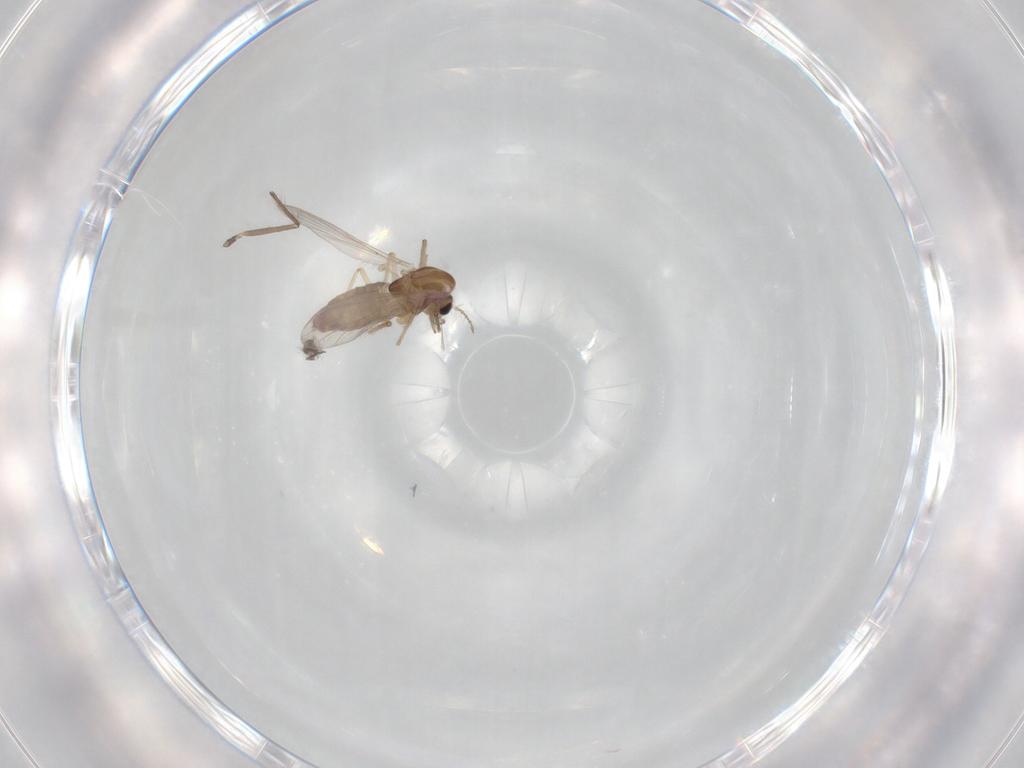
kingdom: Animalia
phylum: Arthropoda
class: Insecta
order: Diptera
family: Chironomidae
